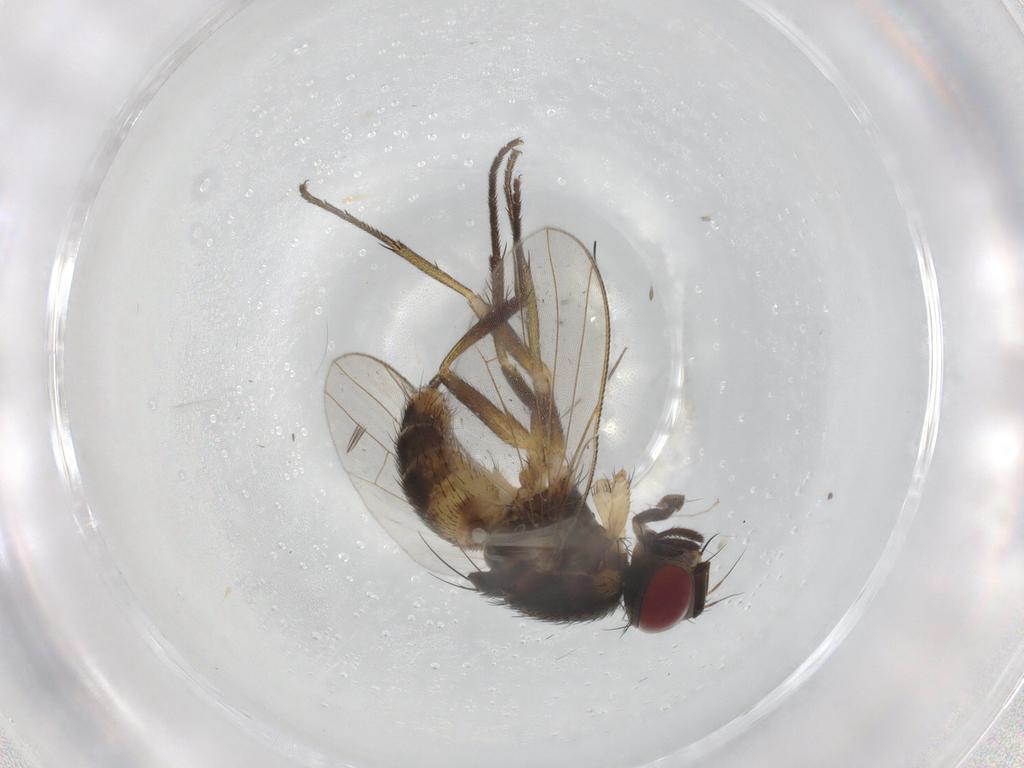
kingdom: Animalia
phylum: Arthropoda
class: Insecta
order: Diptera
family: Muscidae
